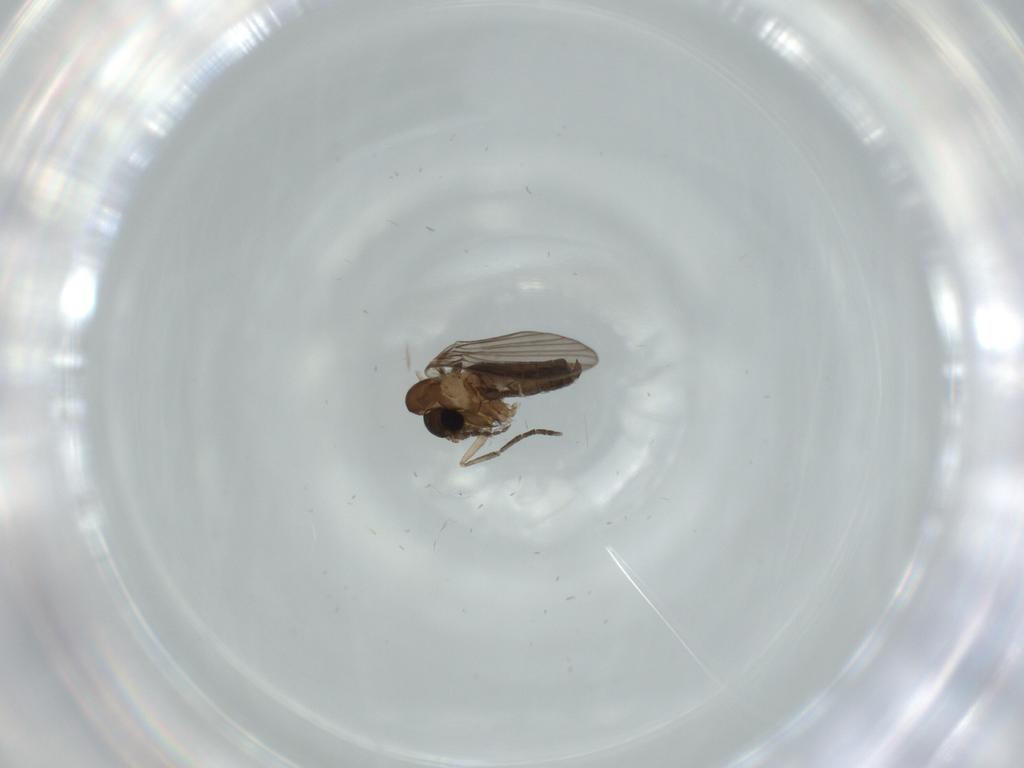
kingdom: Animalia
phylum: Arthropoda
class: Insecta
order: Diptera
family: Psychodidae
